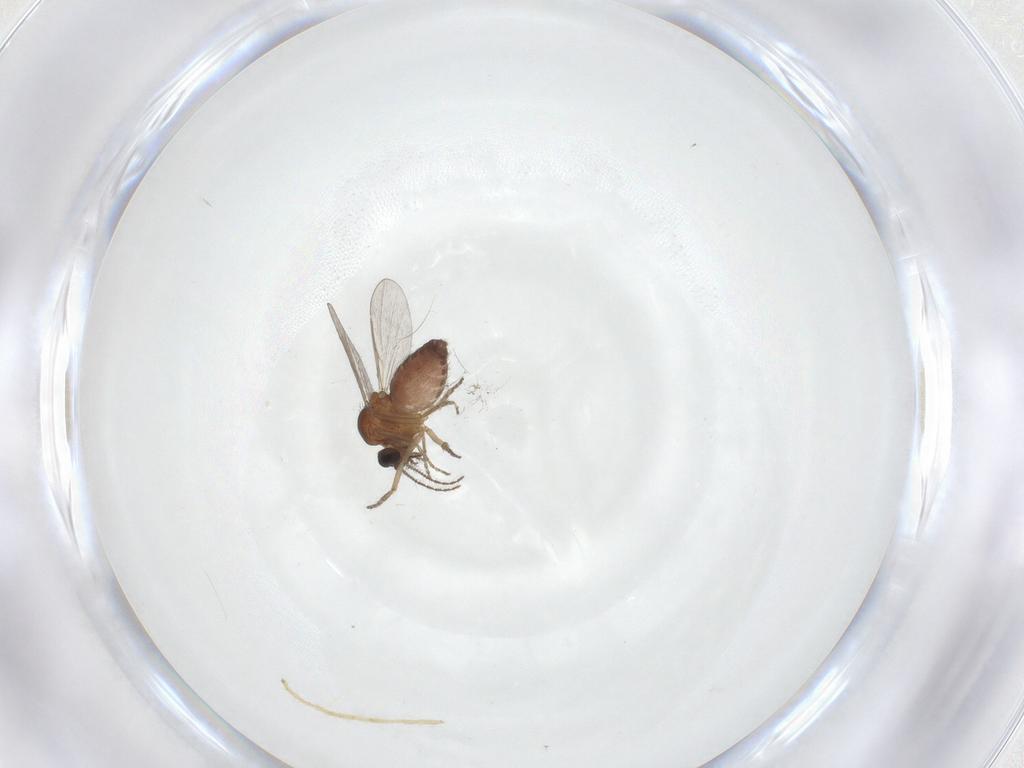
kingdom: Animalia
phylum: Arthropoda
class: Insecta
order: Diptera
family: Ceratopogonidae
